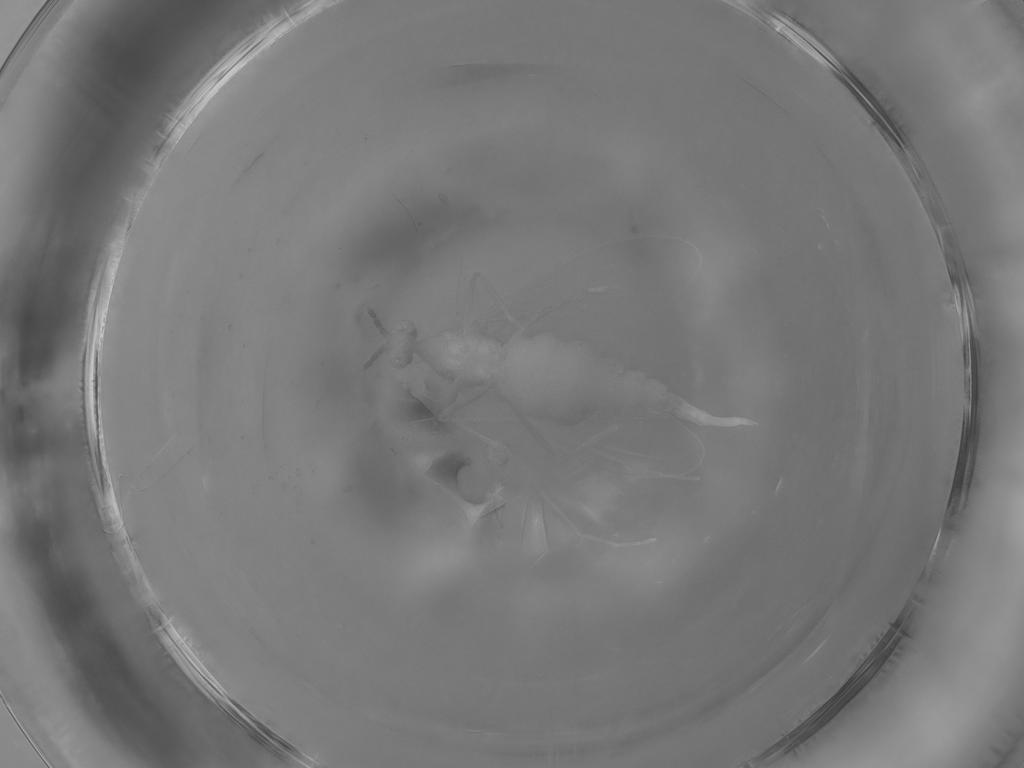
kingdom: Animalia
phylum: Arthropoda
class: Insecta
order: Diptera
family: Cecidomyiidae
